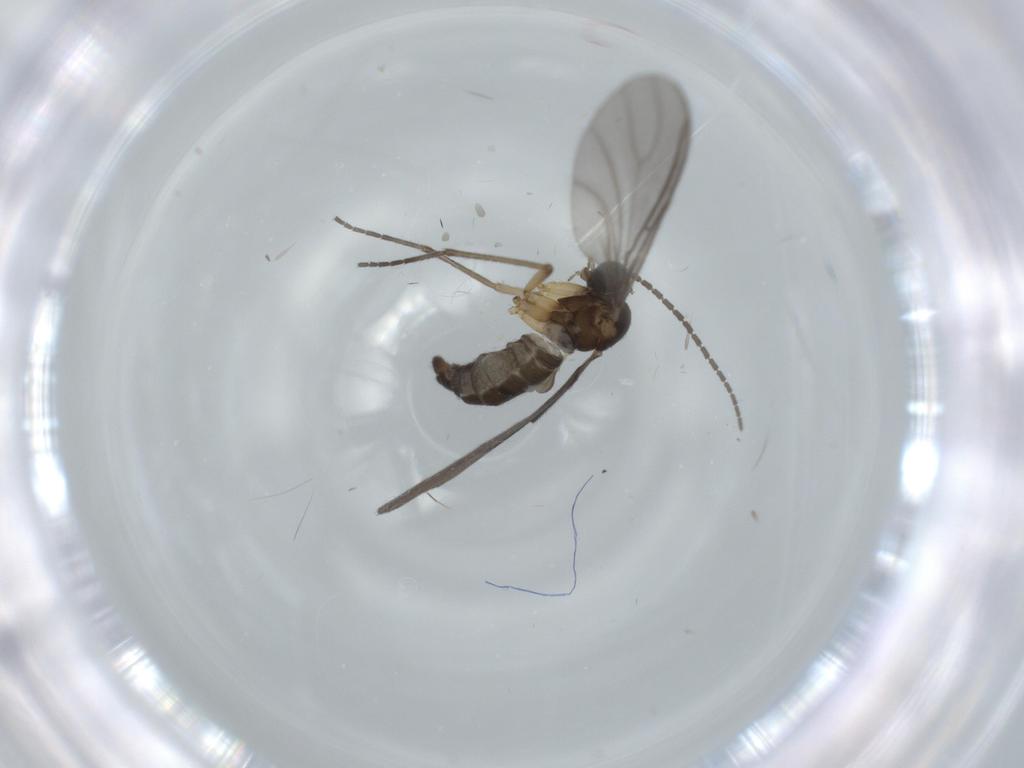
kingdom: Animalia
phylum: Arthropoda
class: Insecta
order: Diptera
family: Sciaridae
